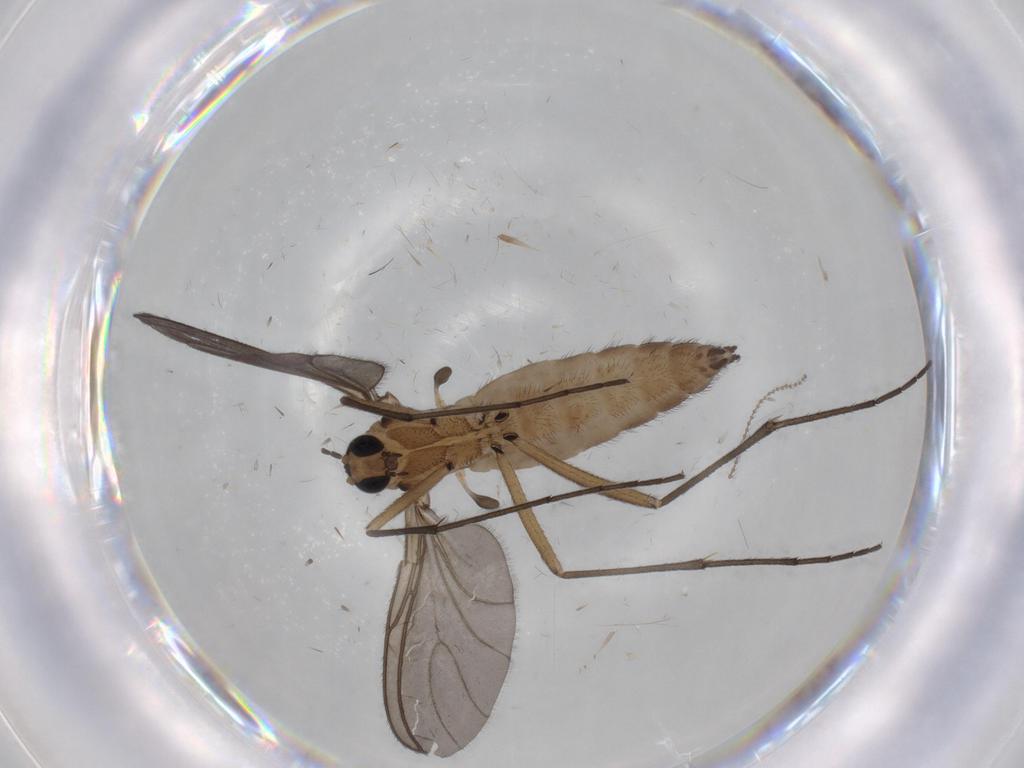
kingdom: Animalia
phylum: Arthropoda
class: Insecta
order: Diptera
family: Sciaridae
